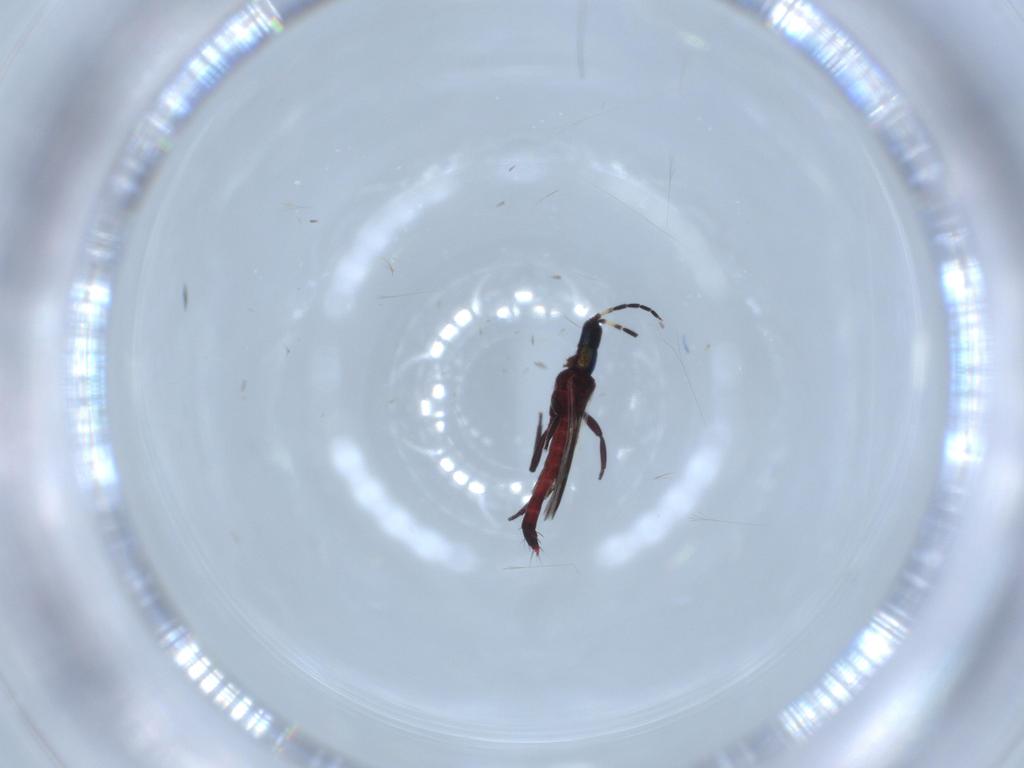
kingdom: Animalia
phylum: Arthropoda
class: Insecta
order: Thysanoptera
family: Aeolothripidae
